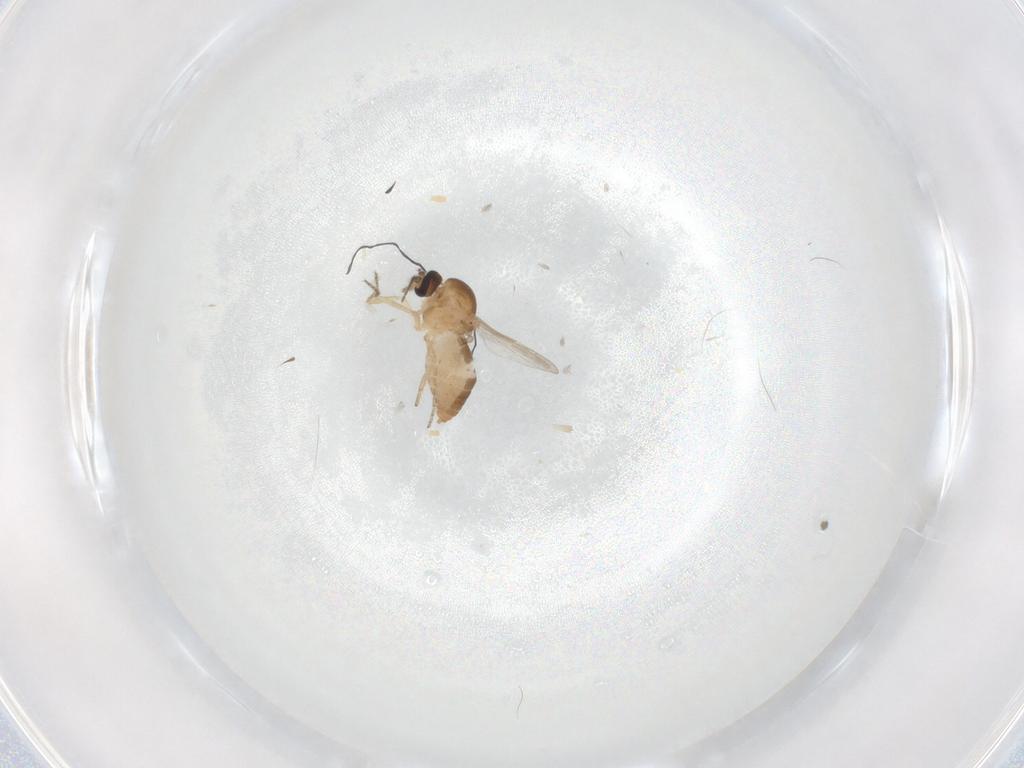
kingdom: Animalia
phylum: Arthropoda
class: Insecta
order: Diptera
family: Ceratopogonidae
